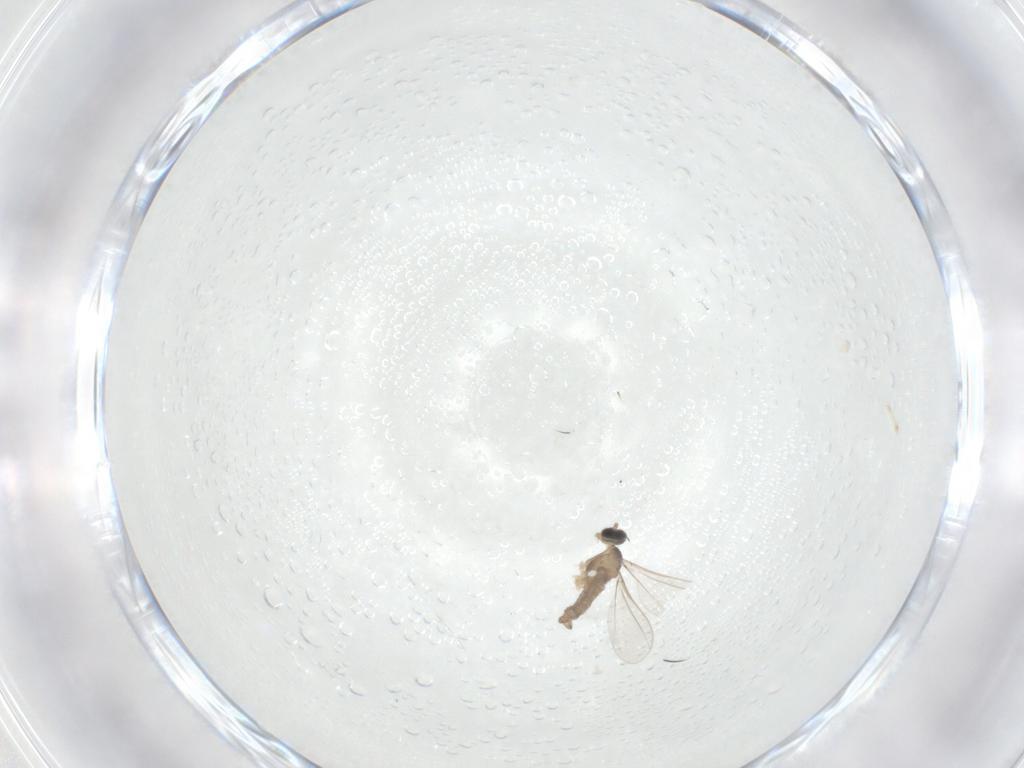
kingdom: Animalia
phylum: Arthropoda
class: Insecta
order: Diptera
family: Cecidomyiidae
